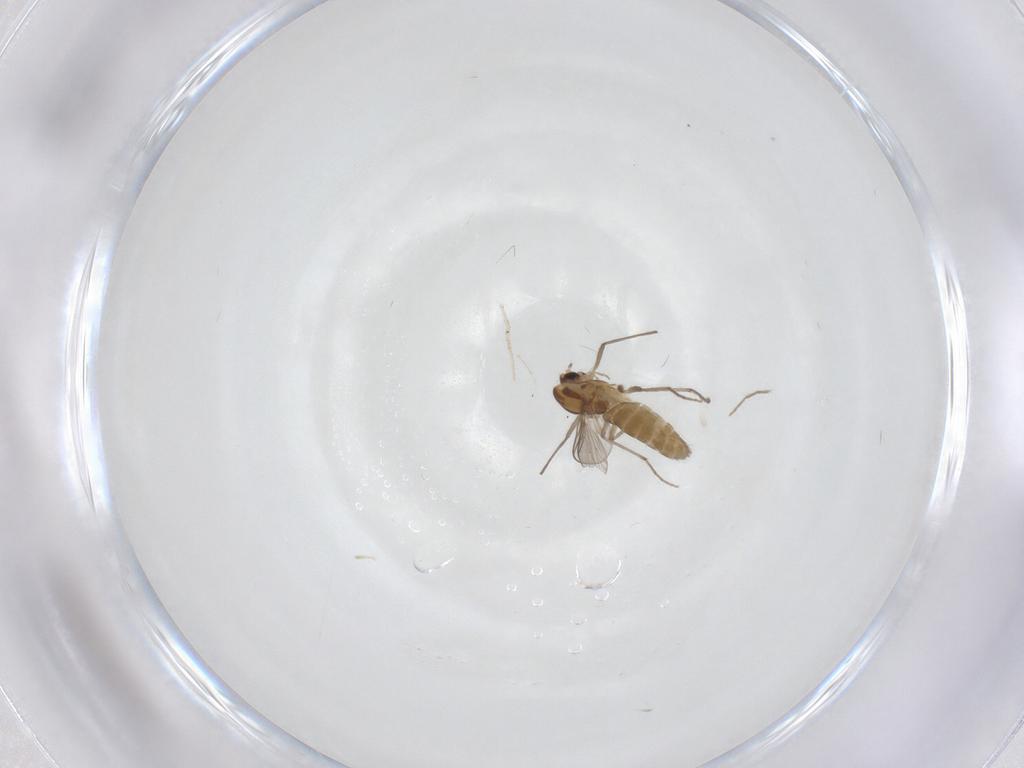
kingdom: Animalia
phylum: Arthropoda
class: Insecta
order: Diptera
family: Chironomidae
